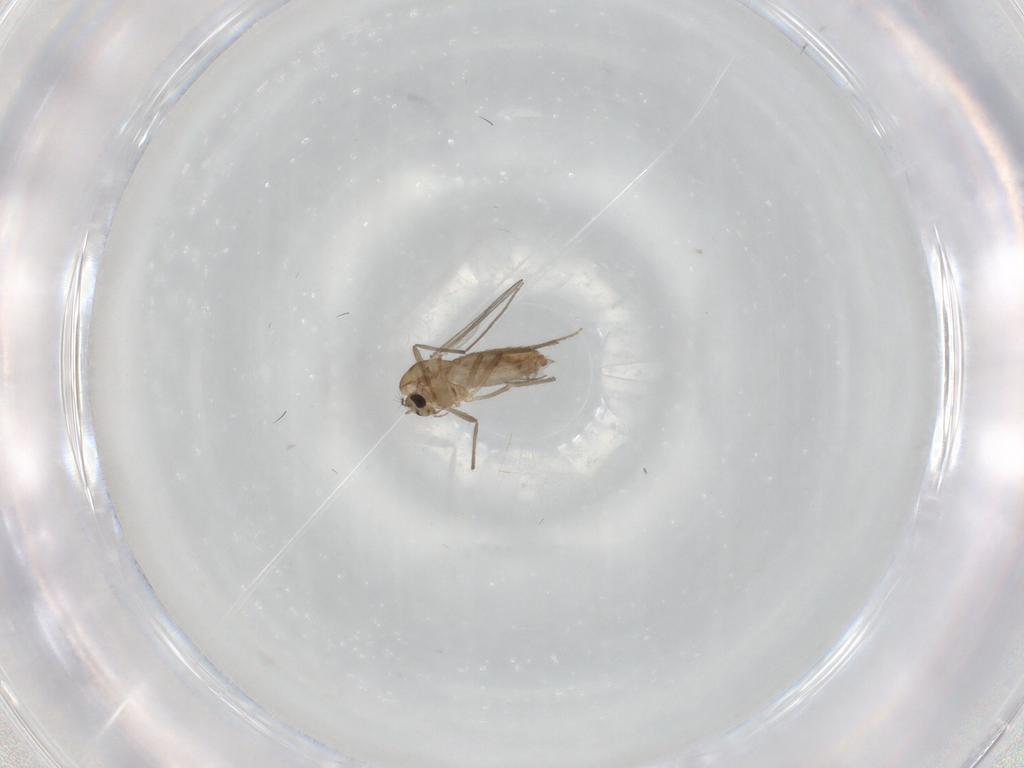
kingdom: Animalia
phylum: Arthropoda
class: Insecta
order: Diptera
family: Chironomidae
